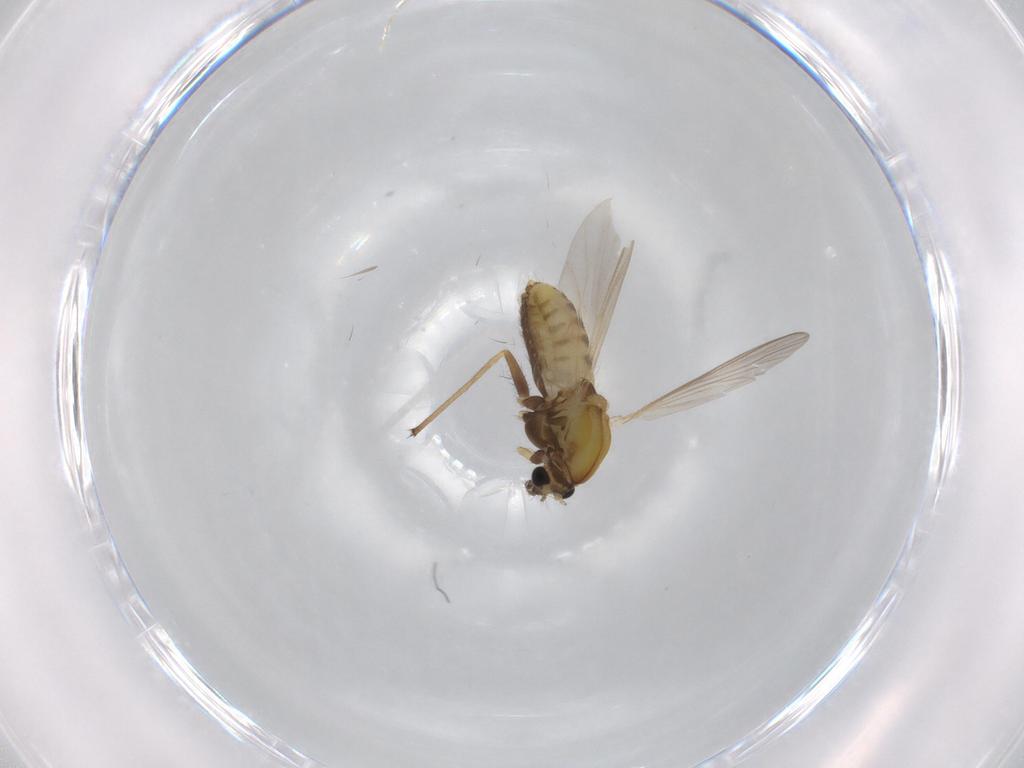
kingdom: Animalia
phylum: Arthropoda
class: Insecta
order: Diptera
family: Chironomidae
